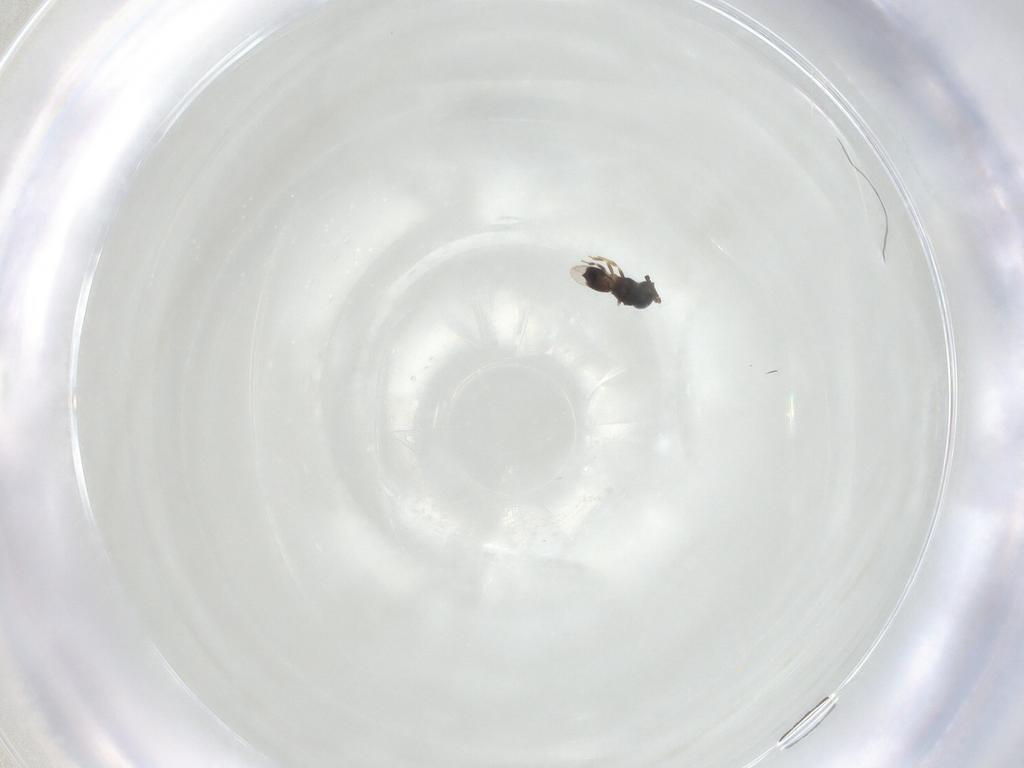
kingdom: Animalia
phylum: Arthropoda
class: Insecta
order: Hymenoptera
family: Scelionidae
